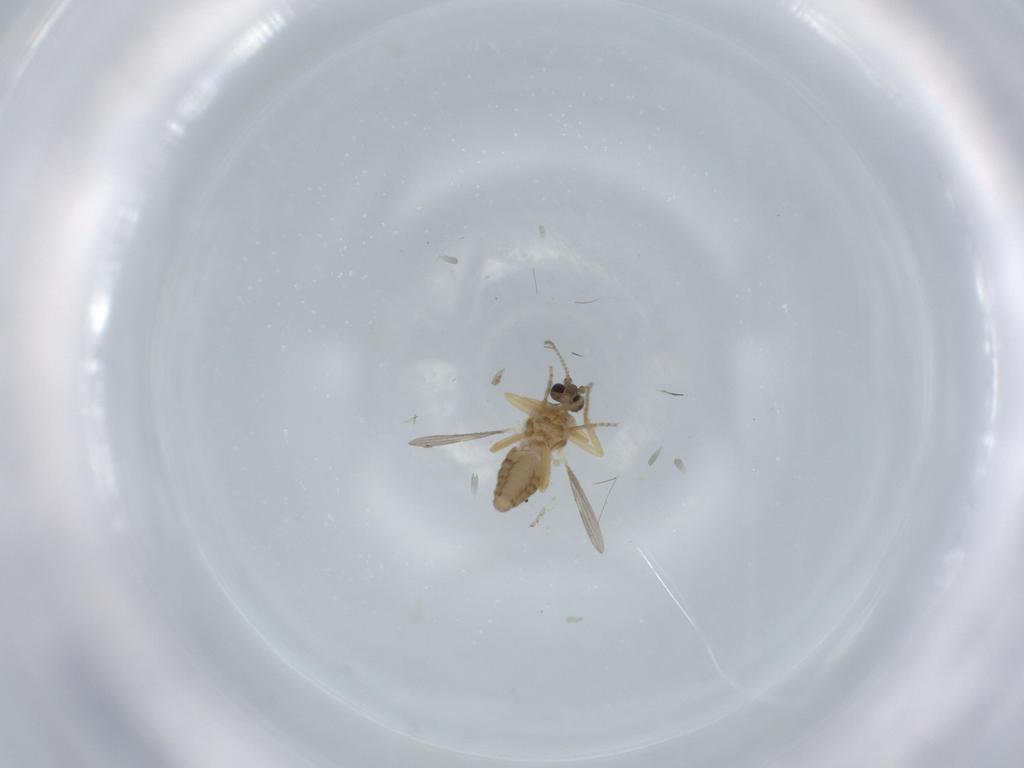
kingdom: Animalia
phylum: Arthropoda
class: Insecta
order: Diptera
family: Ceratopogonidae
